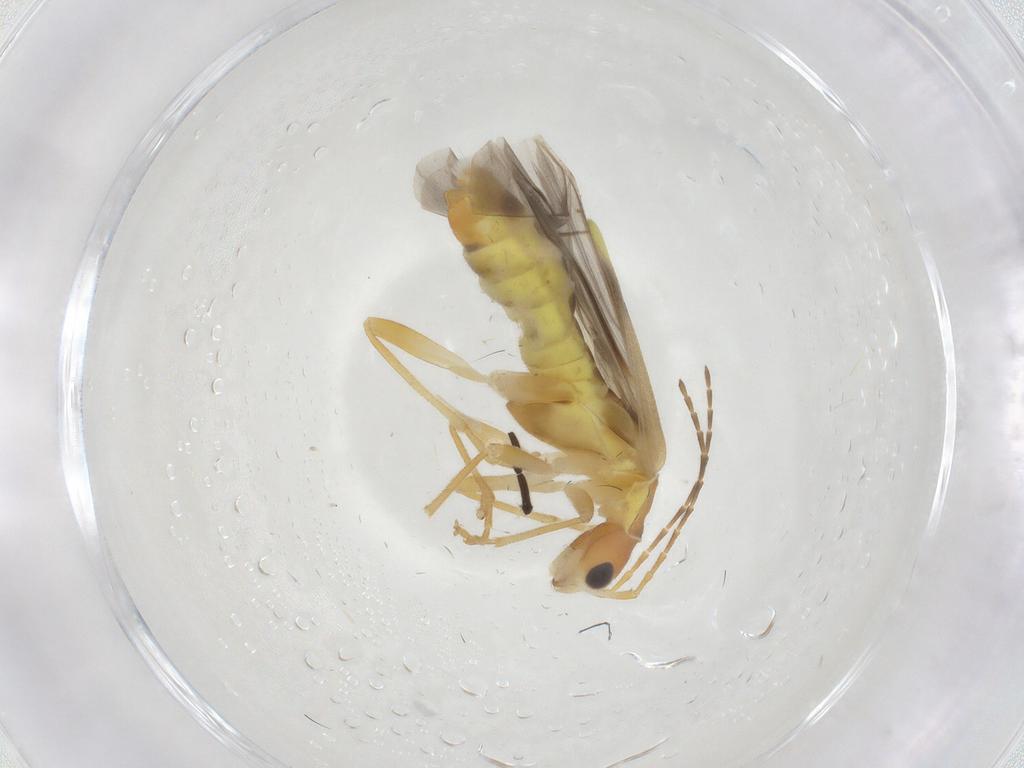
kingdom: Animalia
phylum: Arthropoda
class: Insecta
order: Coleoptera
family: Cantharidae
